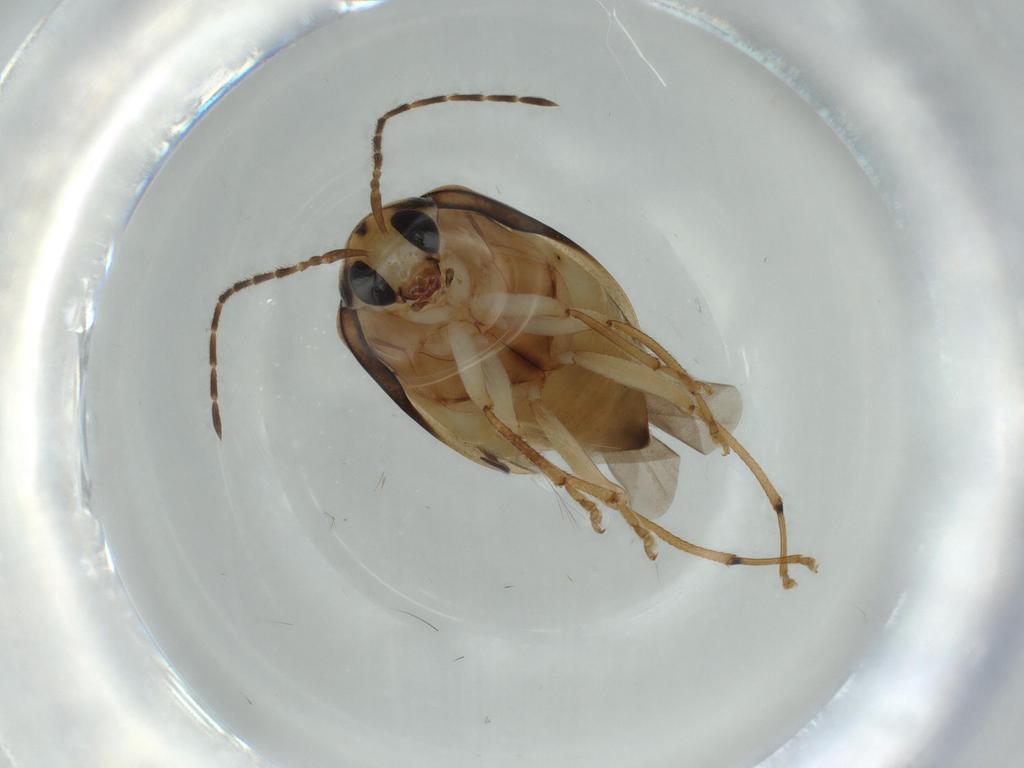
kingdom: Animalia
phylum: Arthropoda
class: Insecta
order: Coleoptera
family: Chrysomelidae
